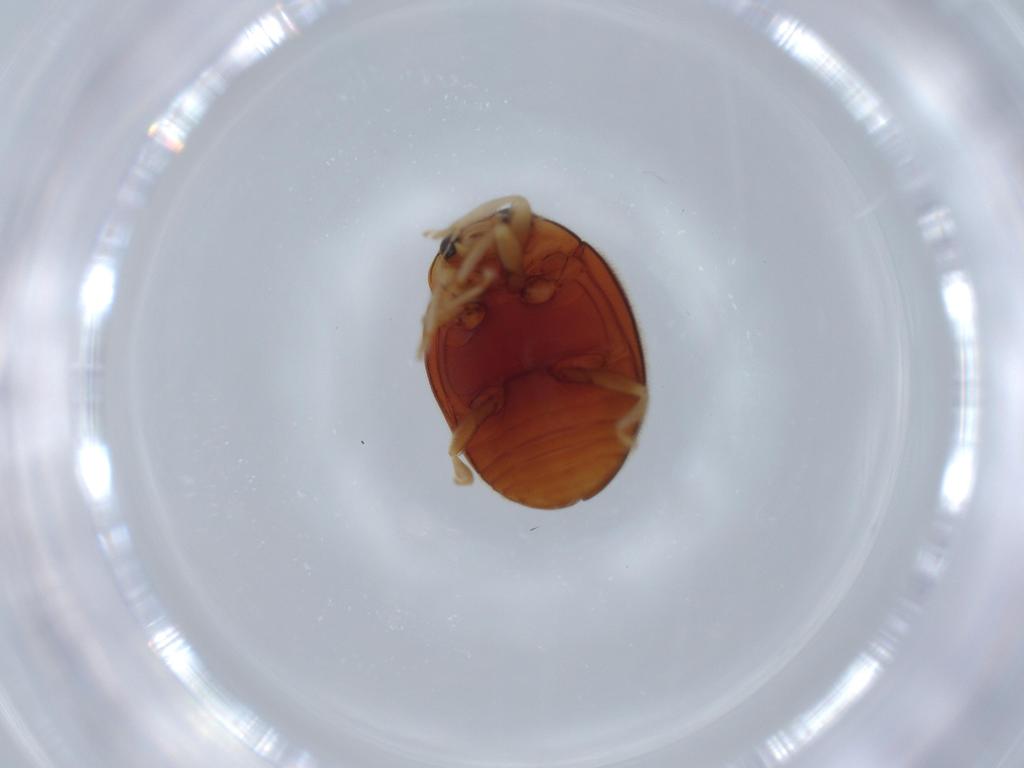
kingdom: Animalia
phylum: Arthropoda
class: Insecta
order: Coleoptera
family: Coccinellidae
